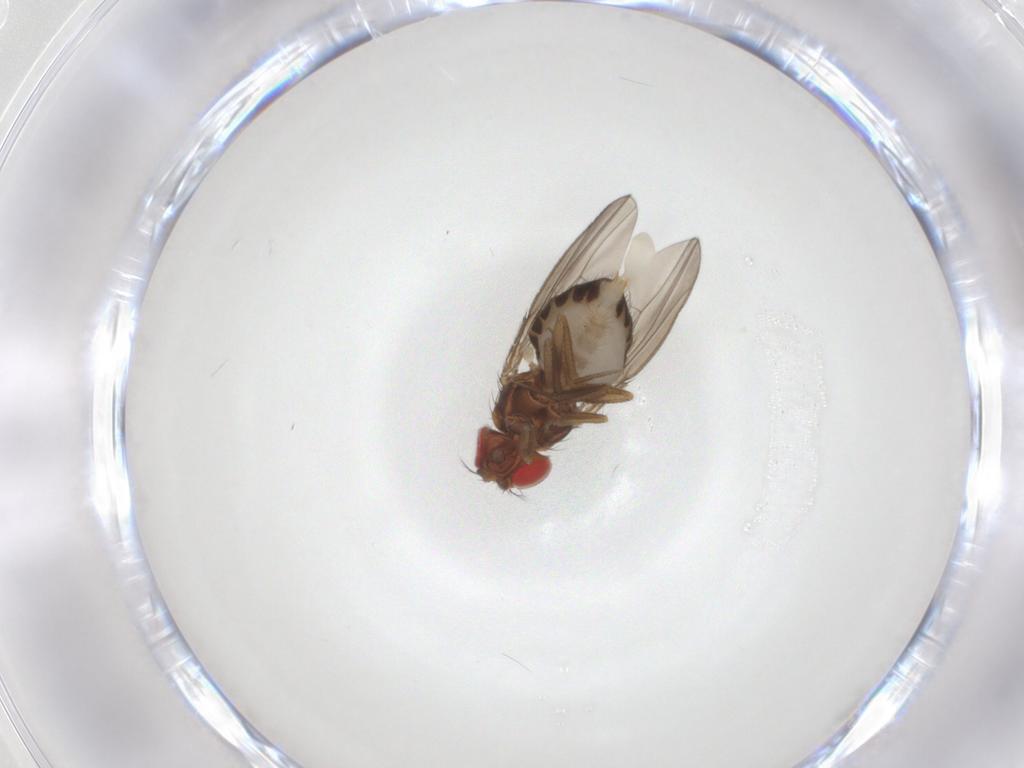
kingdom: Animalia
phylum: Arthropoda
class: Insecta
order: Diptera
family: Drosophilidae
